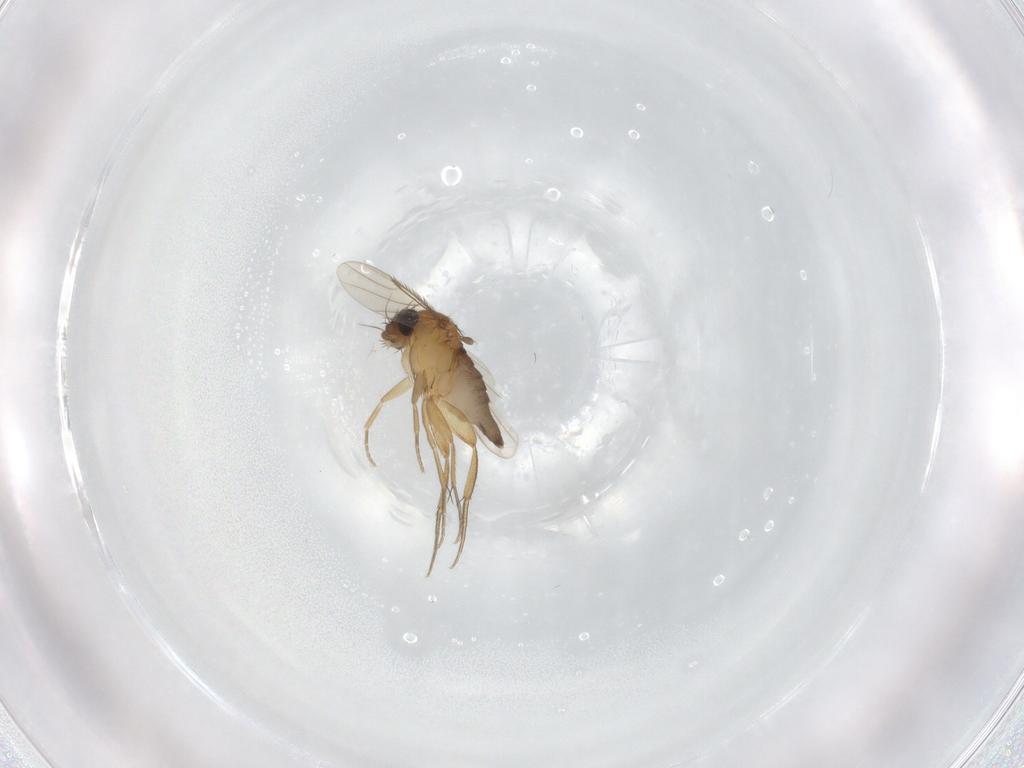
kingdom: Animalia
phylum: Arthropoda
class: Insecta
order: Diptera
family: Phoridae
